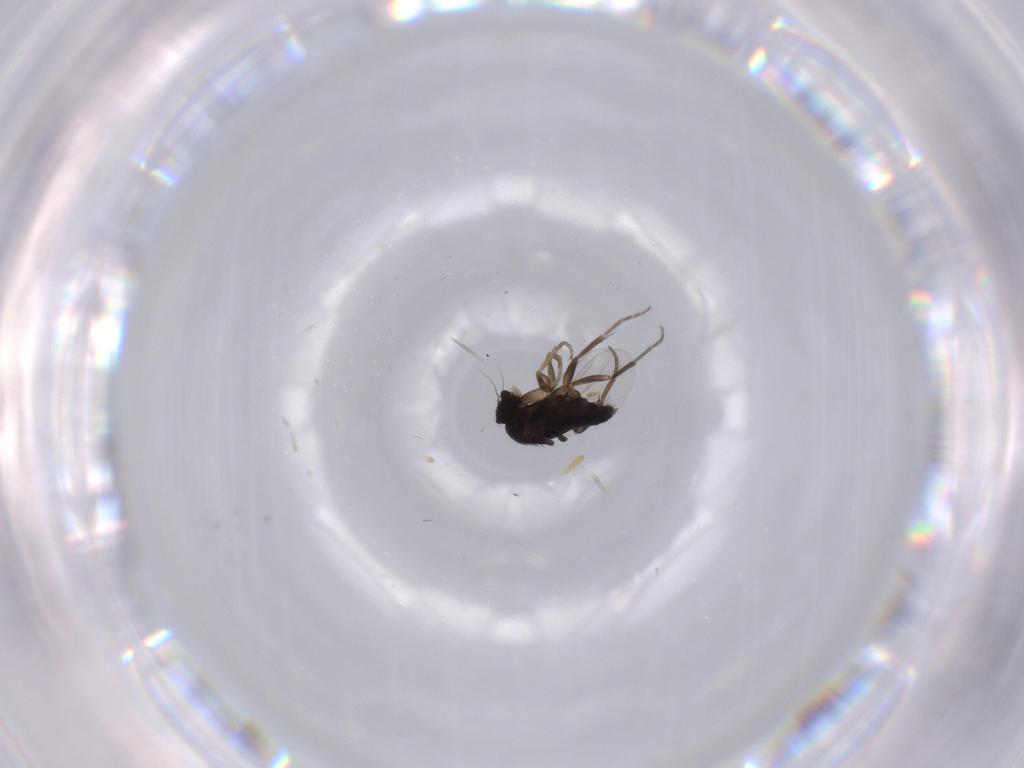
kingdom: Animalia
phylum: Arthropoda
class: Insecta
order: Diptera
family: Phoridae
